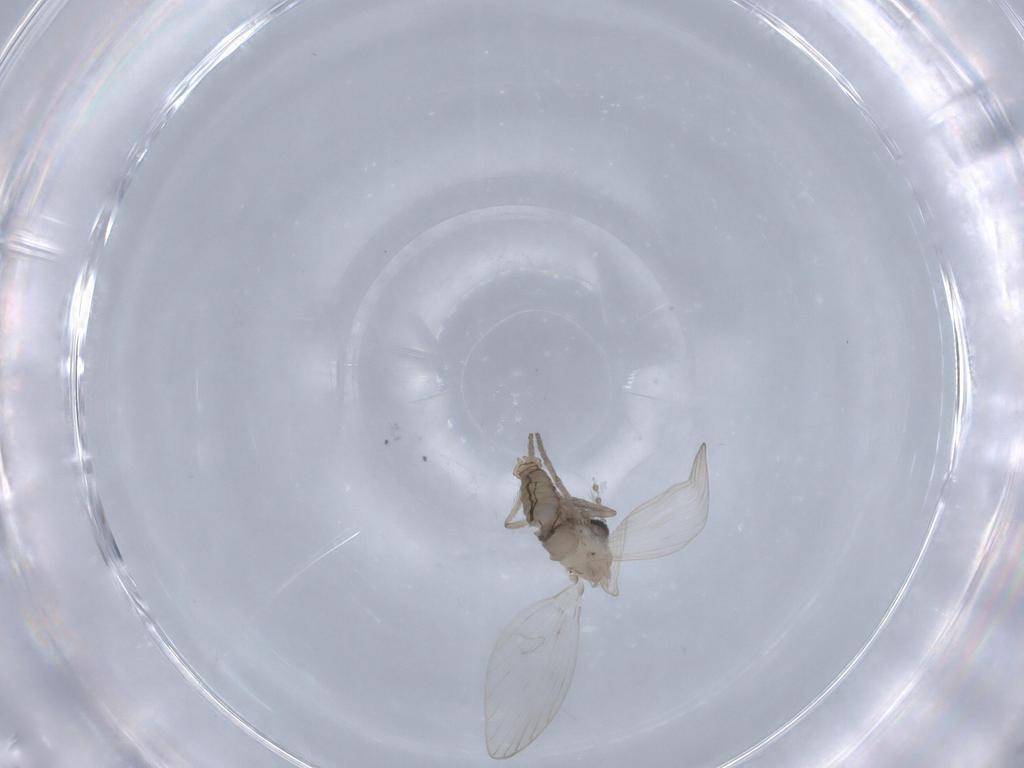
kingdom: Animalia
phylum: Arthropoda
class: Insecta
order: Diptera
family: Psychodidae
